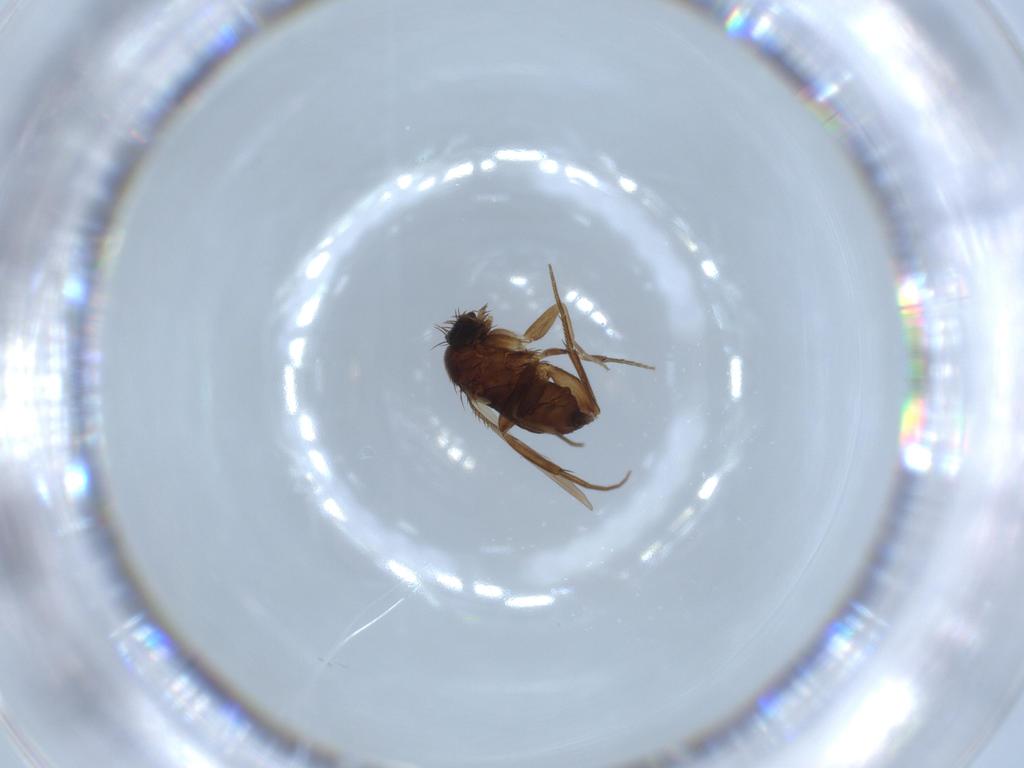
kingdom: Animalia
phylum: Arthropoda
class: Insecta
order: Diptera
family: Phoridae
